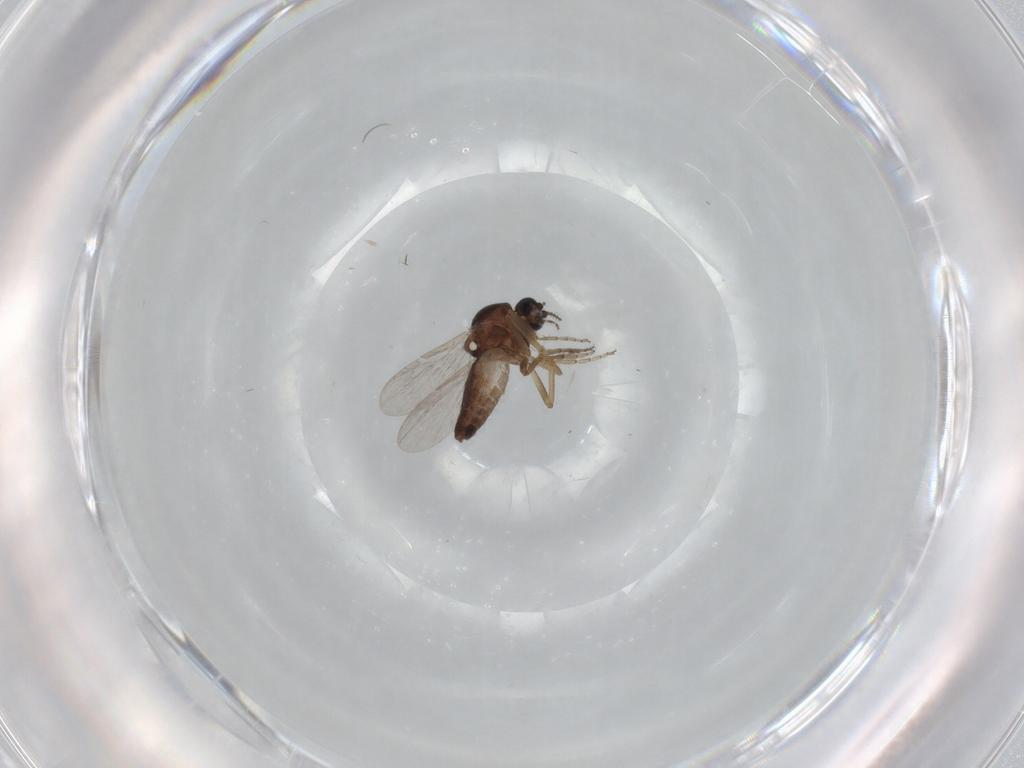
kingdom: Animalia
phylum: Arthropoda
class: Insecta
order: Diptera
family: Ceratopogonidae
